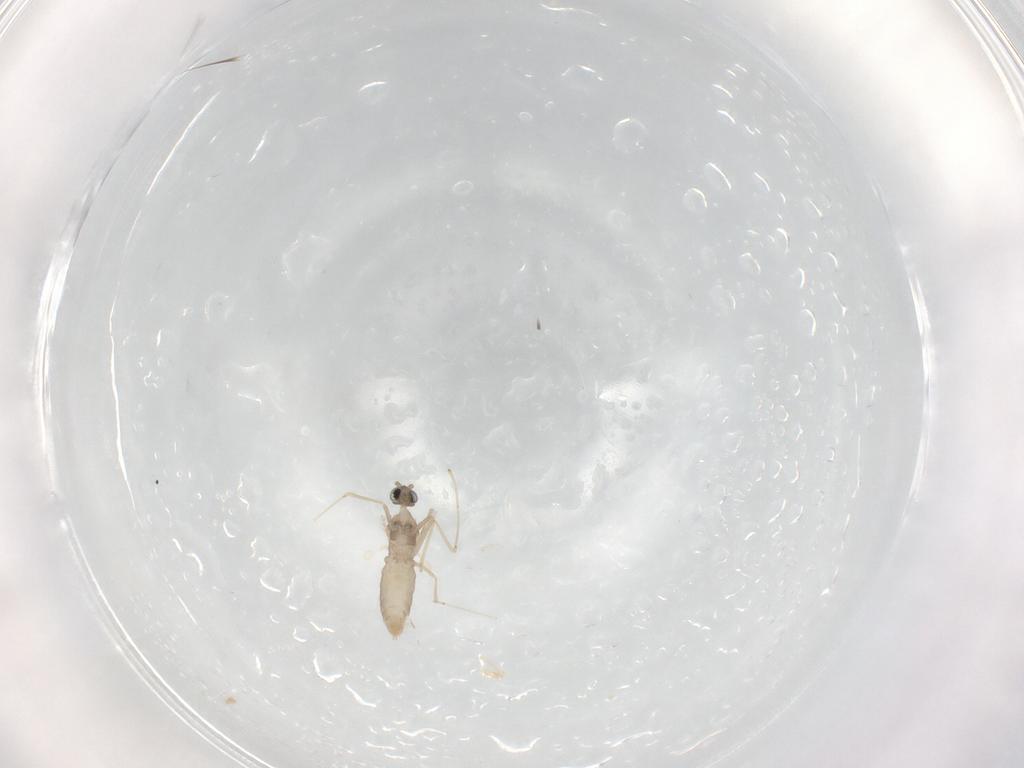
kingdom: Animalia
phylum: Arthropoda
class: Insecta
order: Diptera
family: Cecidomyiidae
